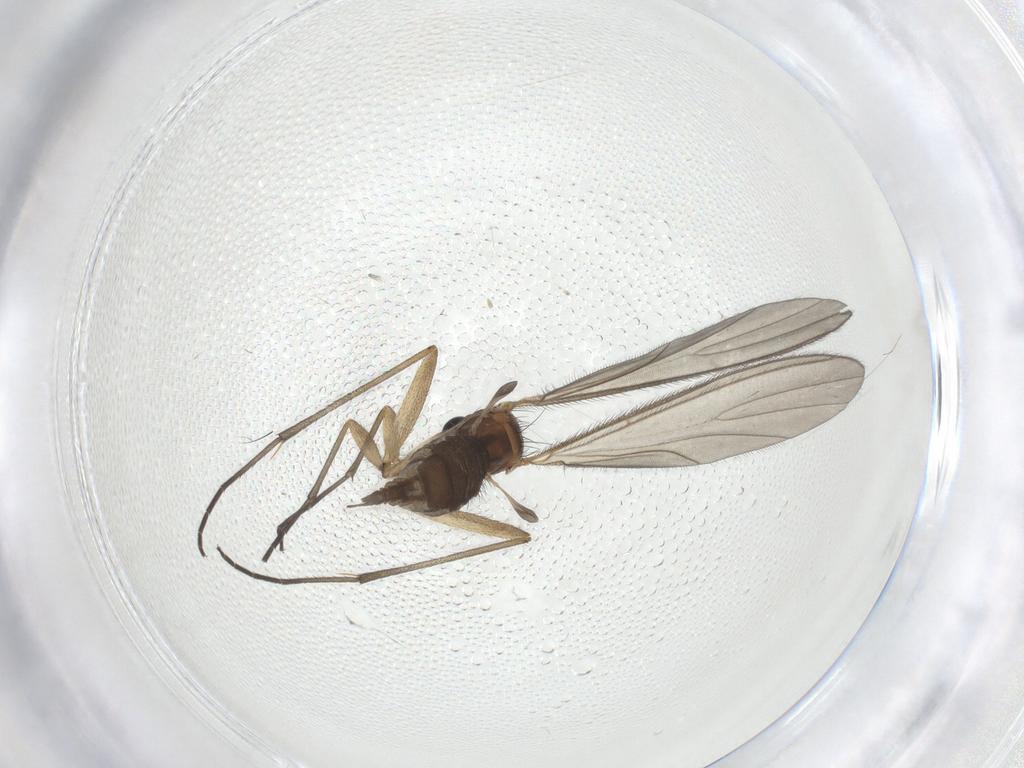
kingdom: Animalia
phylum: Arthropoda
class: Insecta
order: Diptera
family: Sciaridae
